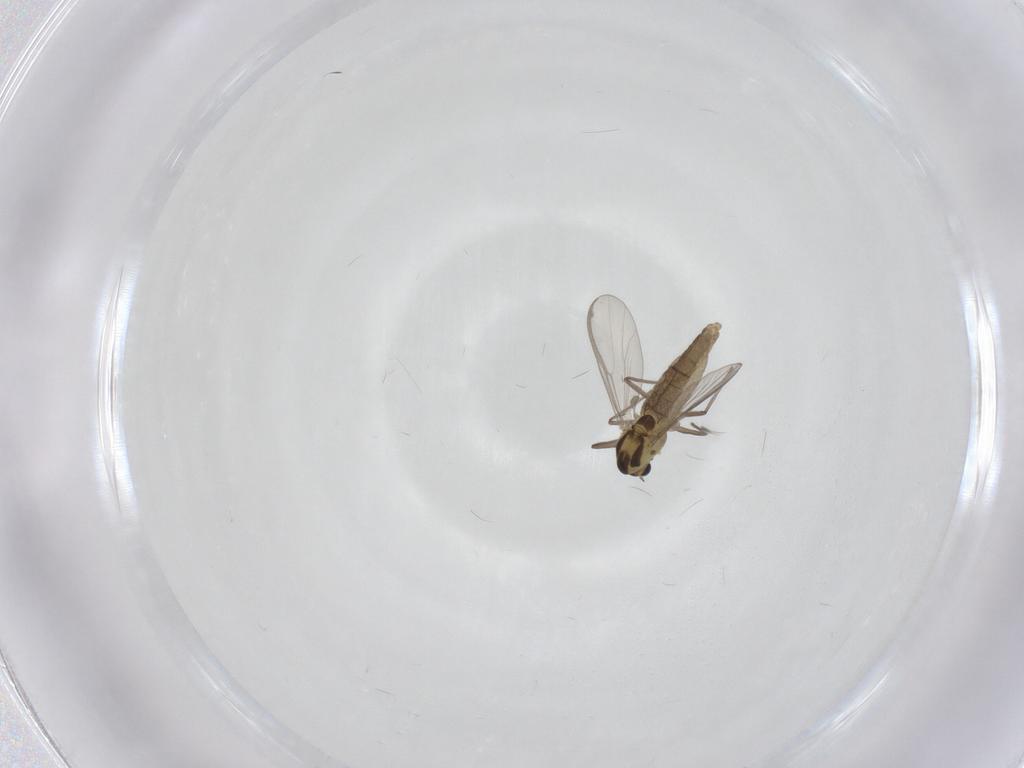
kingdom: Animalia
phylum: Arthropoda
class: Insecta
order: Diptera
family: Chironomidae
